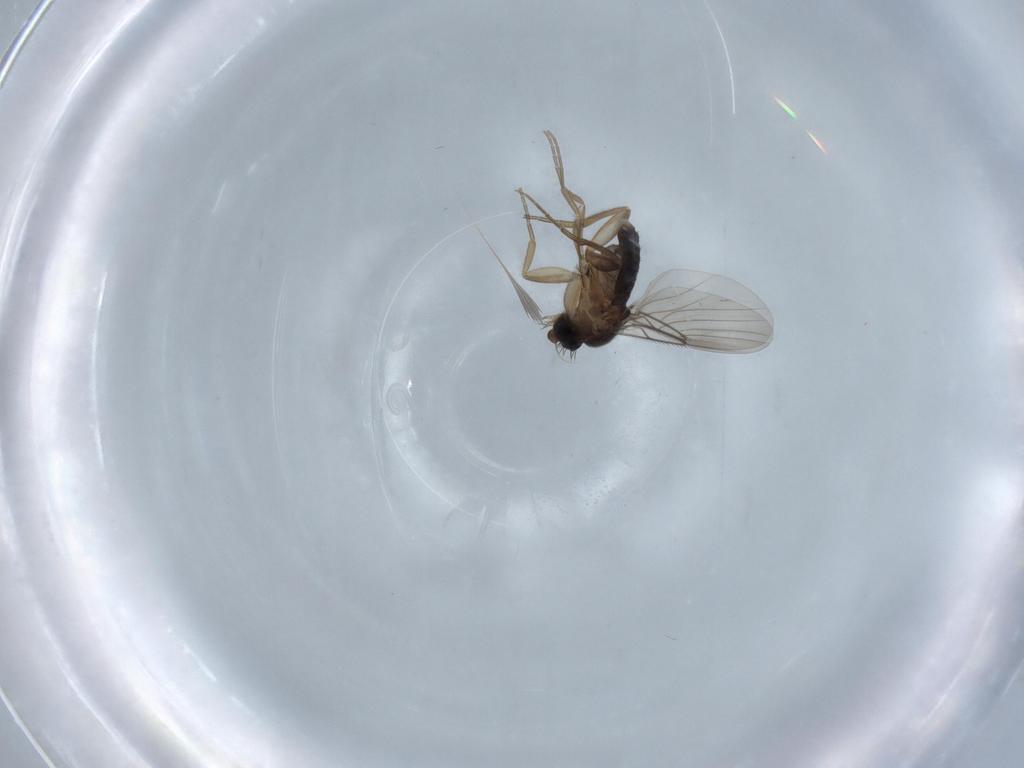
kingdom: Animalia
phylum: Arthropoda
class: Insecta
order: Diptera
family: Phoridae
